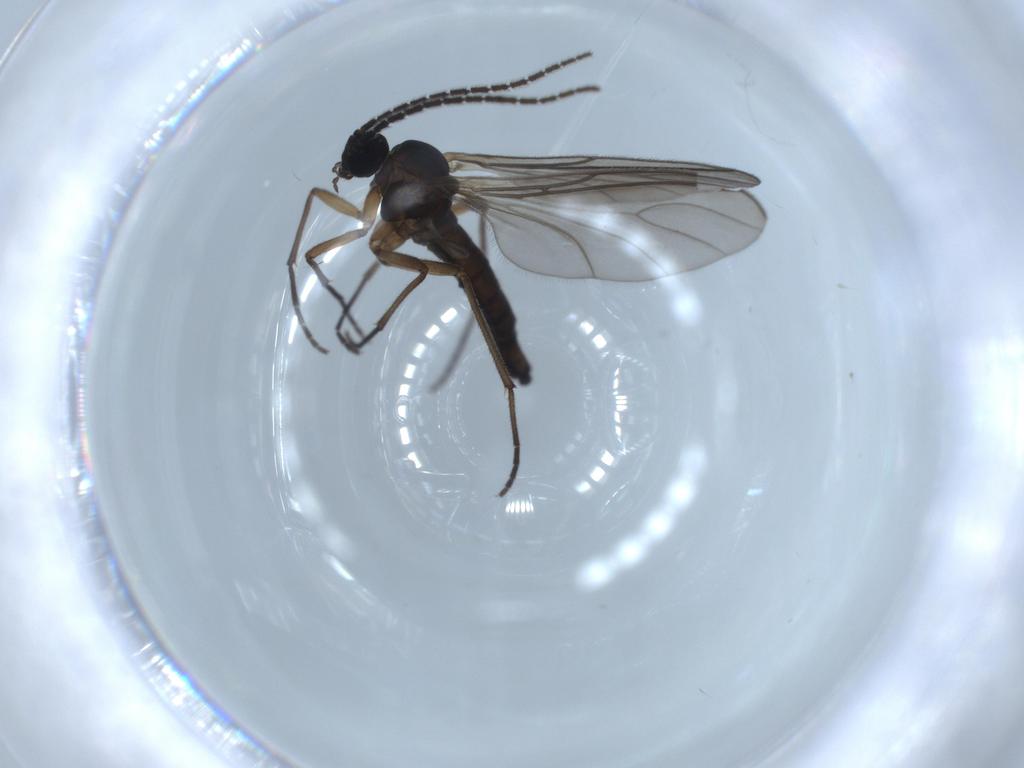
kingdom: Animalia
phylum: Arthropoda
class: Insecta
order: Diptera
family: Sciaridae
